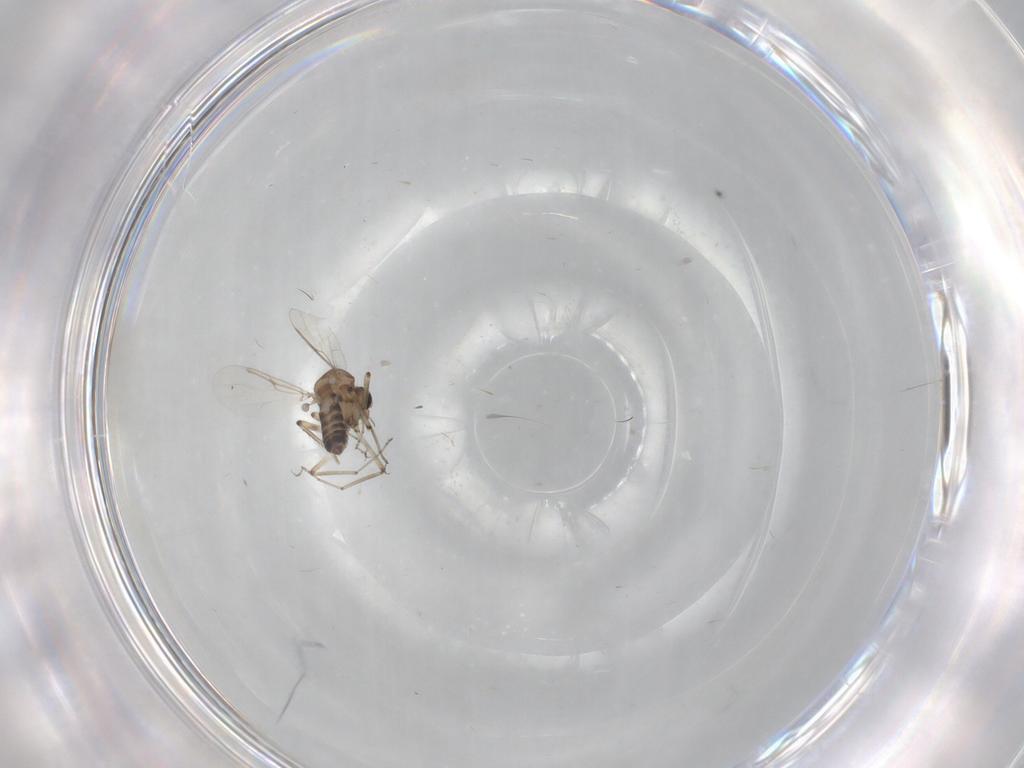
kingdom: Animalia
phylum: Arthropoda
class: Insecta
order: Diptera
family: Ceratopogonidae
